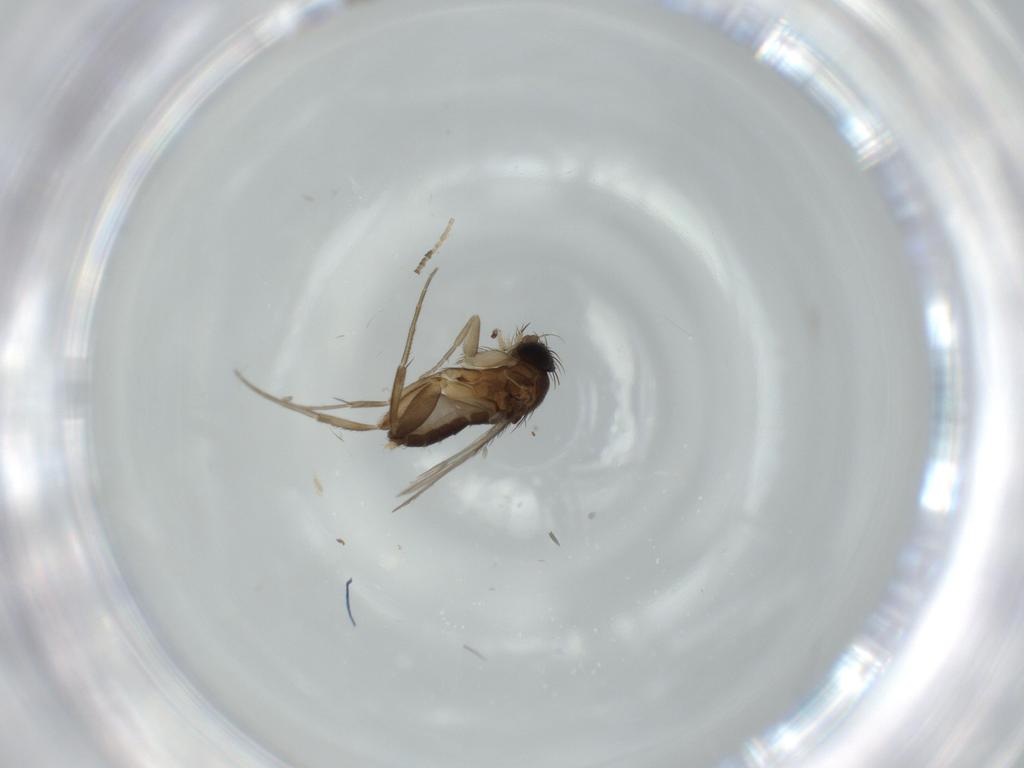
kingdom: Animalia
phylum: Arthropoda
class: Insecta
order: Diptera
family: Phoridae
